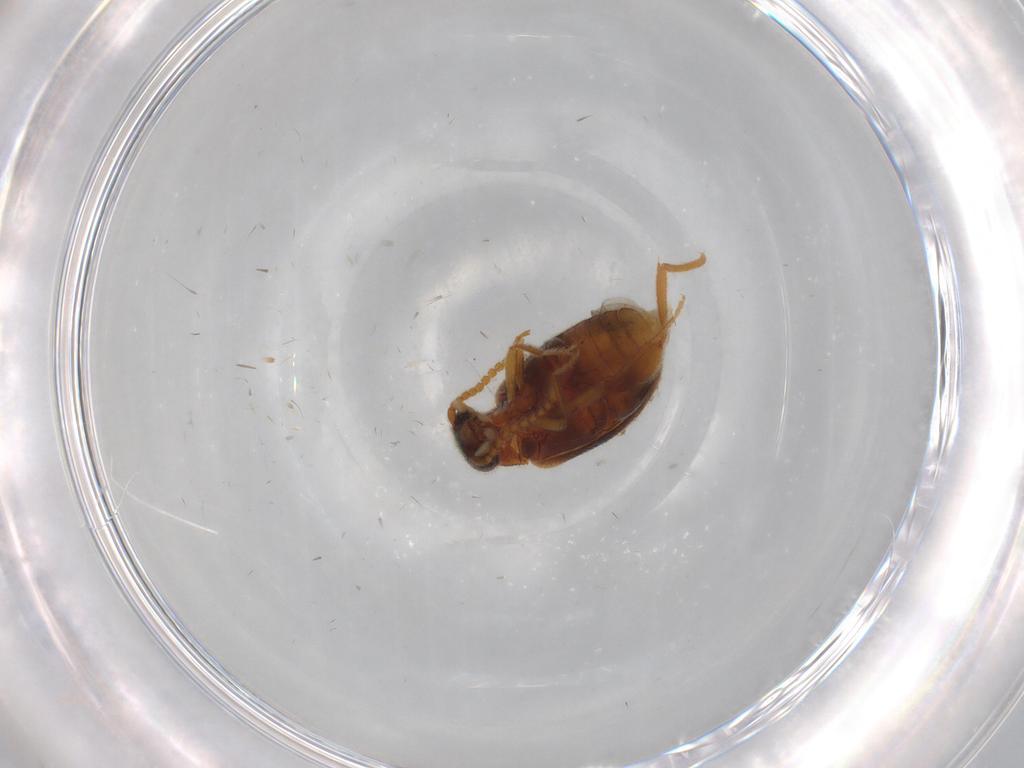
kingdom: Animalia
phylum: Arthropoda
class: Insecta
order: Coleoptera
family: Aderidae
